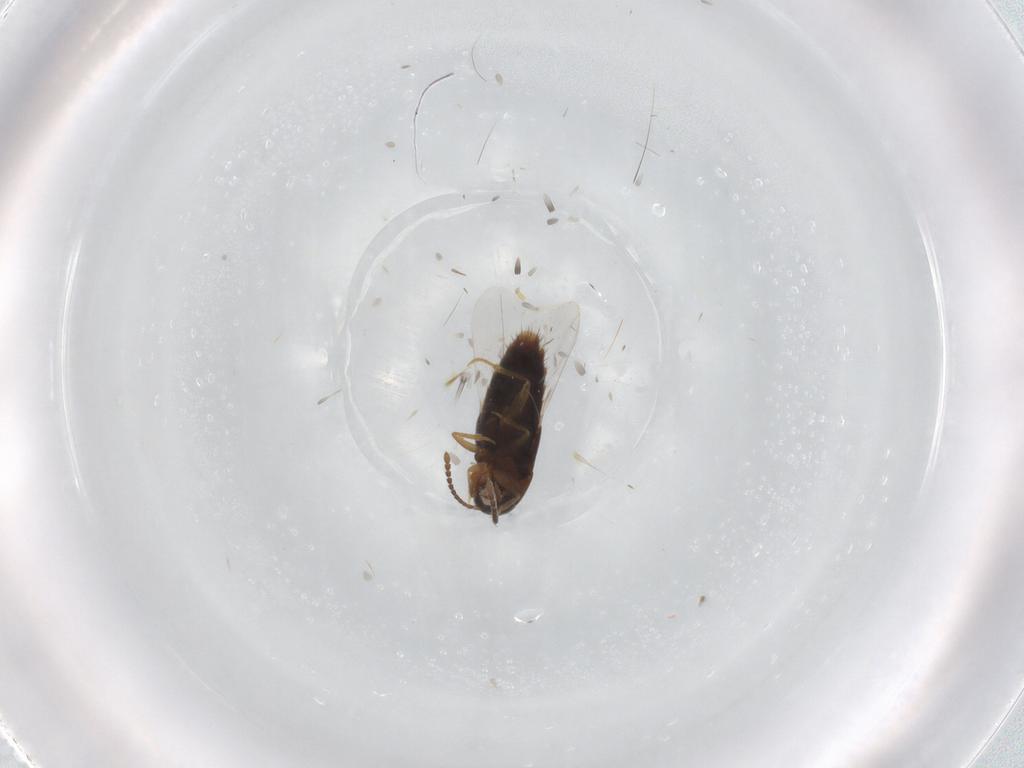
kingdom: Animalia
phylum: Arthropoda
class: Insecta
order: Coleoptera
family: Staphylinidae
